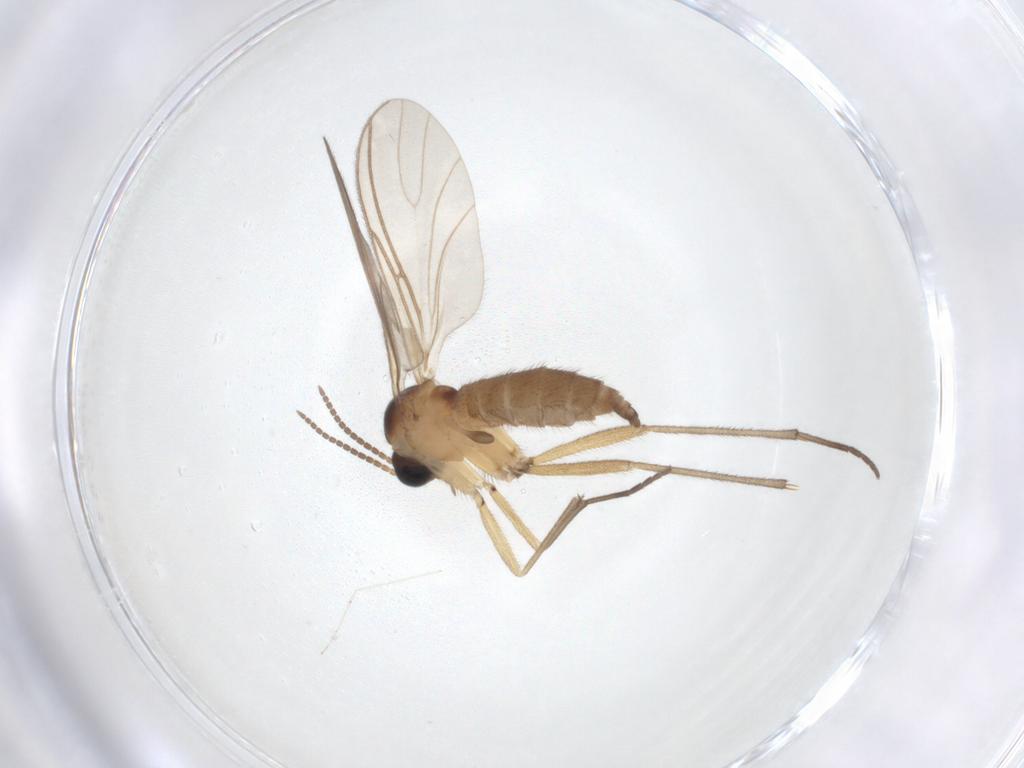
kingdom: Animalia
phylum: Arthropoda
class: Insecta
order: Diptera
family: Sciaridae
